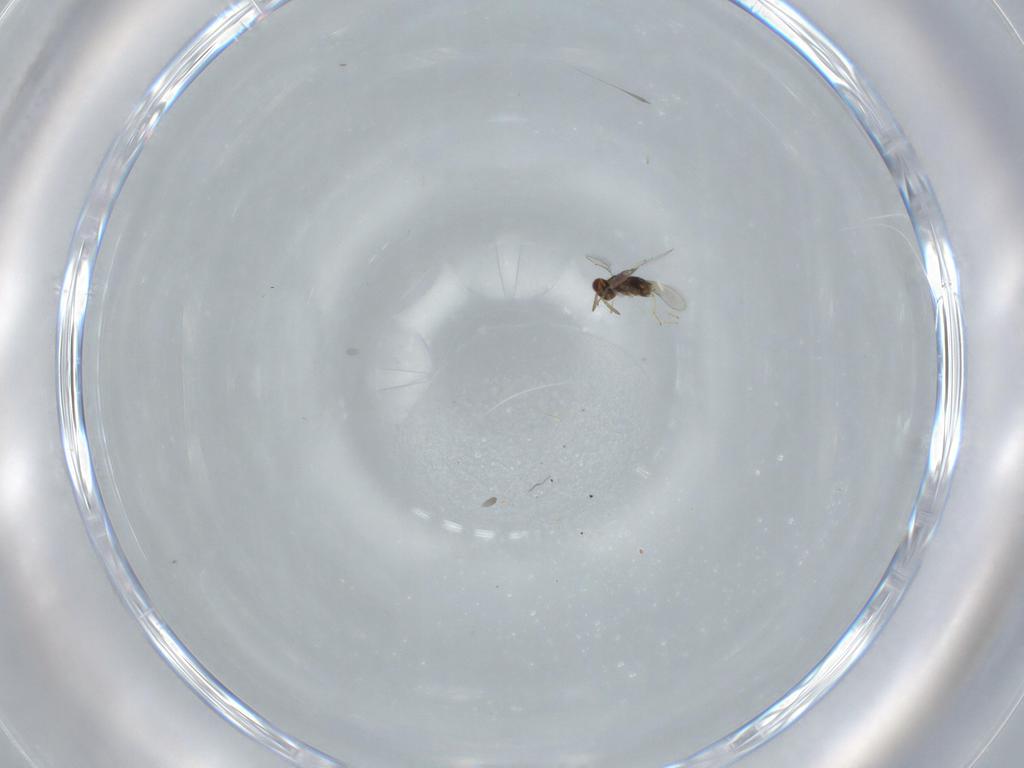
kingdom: Animalia
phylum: Arthropoda
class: Insecta
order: Hymenoptera
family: Aphelinidae
